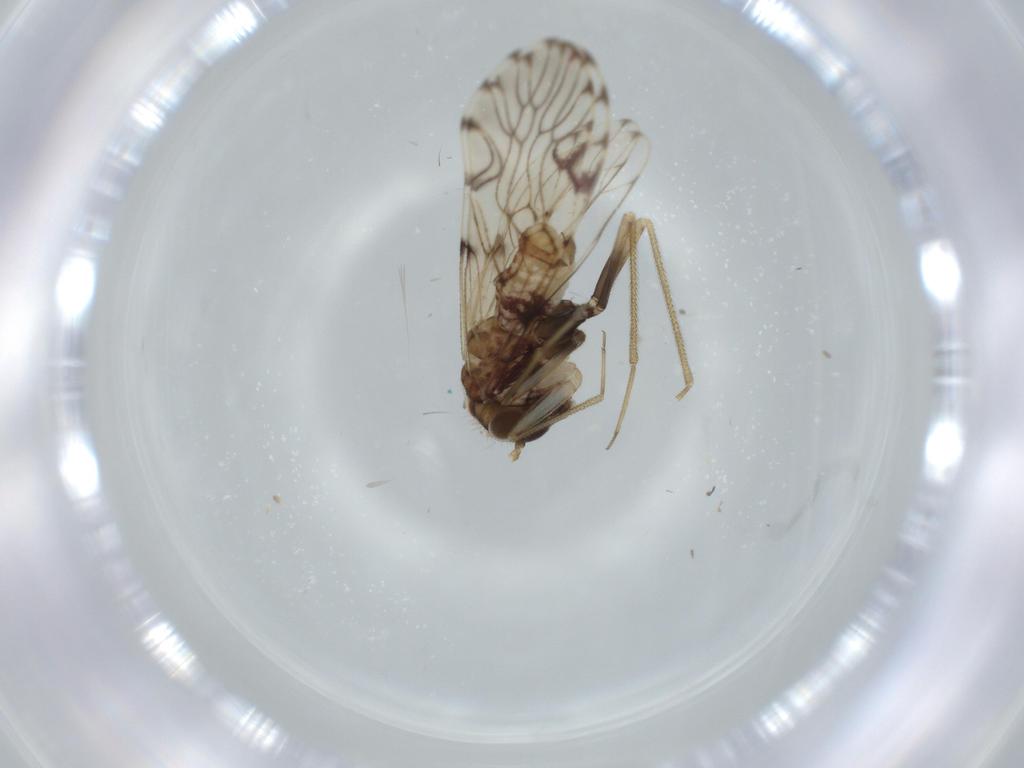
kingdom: Animalia
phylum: Arthropoda
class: Insecta
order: Psocodea
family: Epipsocidae
